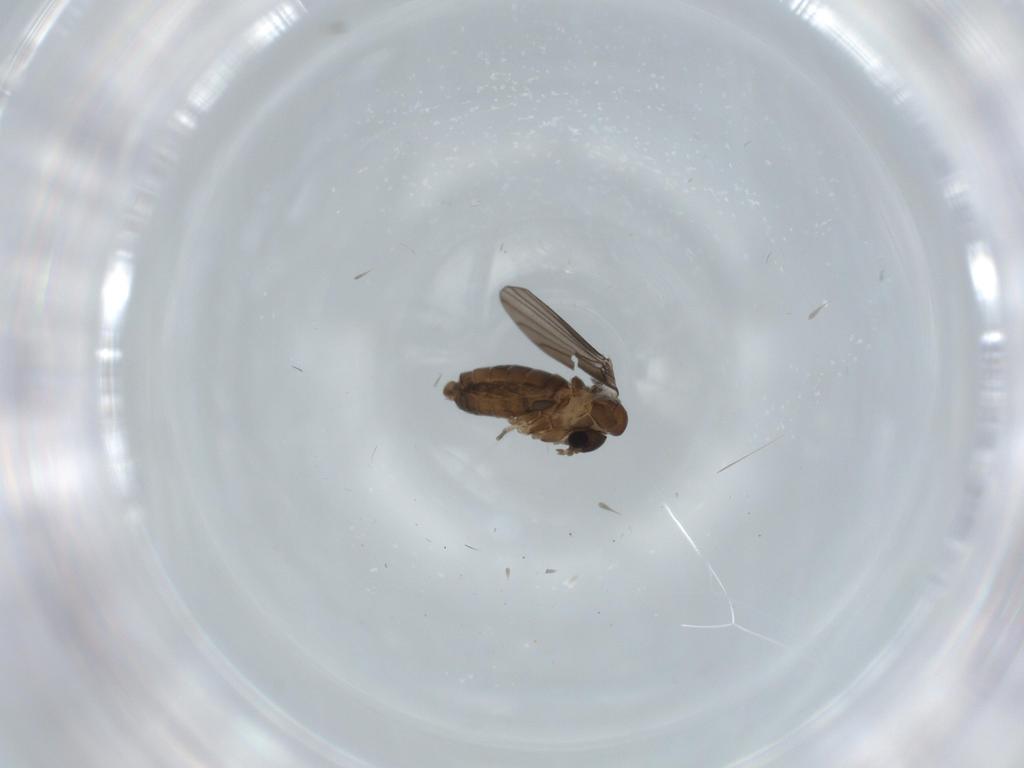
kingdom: Animalia
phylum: Arthropoda
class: Insecta
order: Diptera
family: Psychodidae
